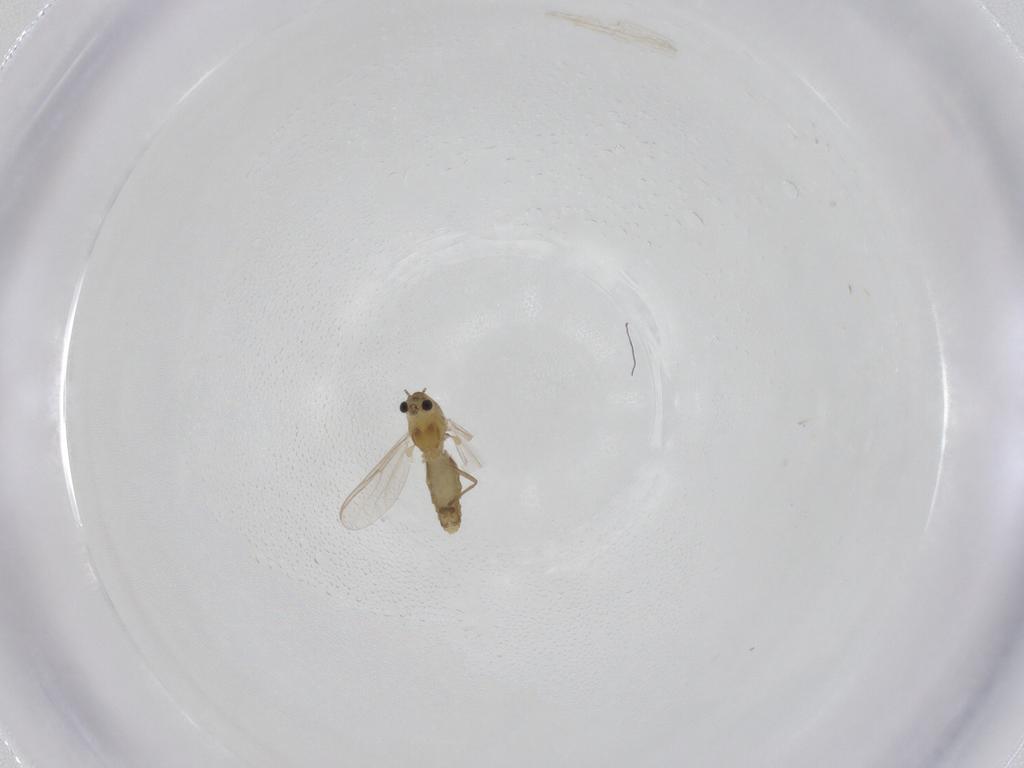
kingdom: Animalia
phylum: Arthropoda
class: Insecta
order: Diptera
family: Chironomidae
